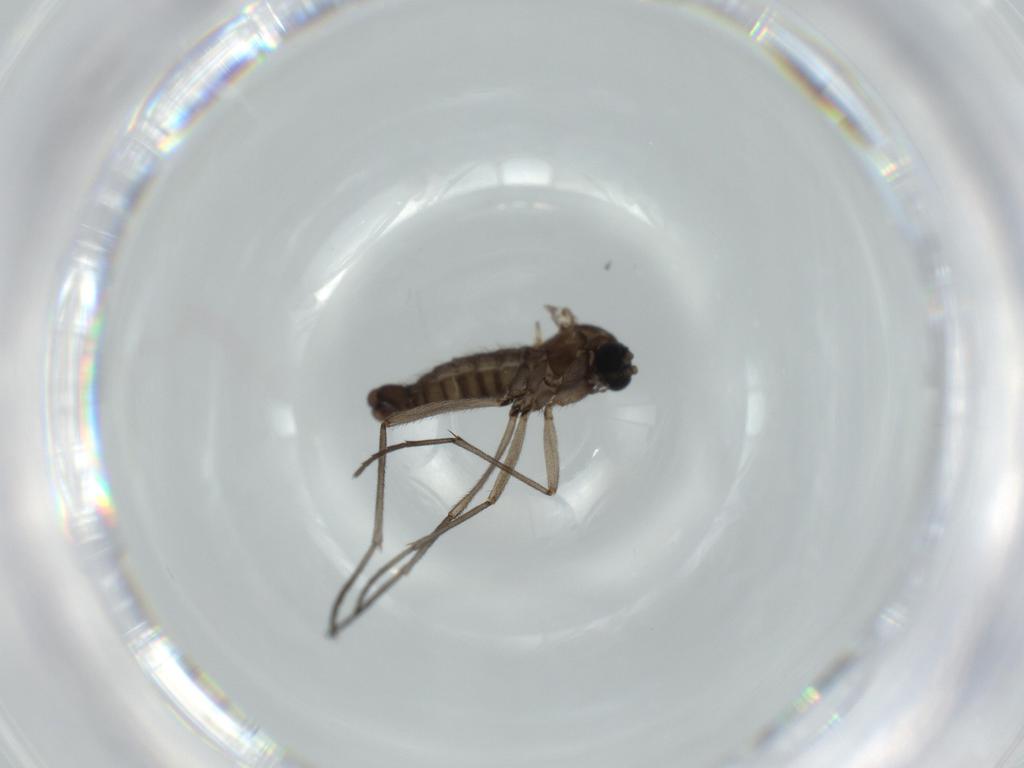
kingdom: Animalia
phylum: Arthropoda
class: Insecta
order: Diptera
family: Sciaridae
